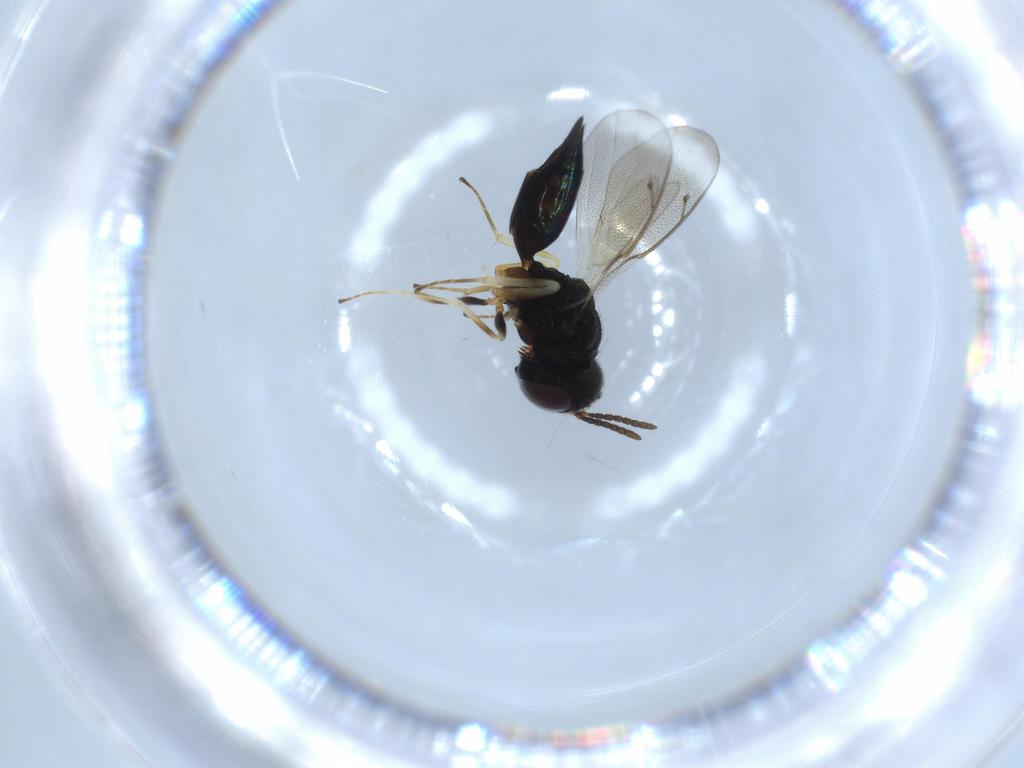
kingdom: Animalia
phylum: Arthropoda
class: Insecta
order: Hymenoptera
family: Pteromalidae
